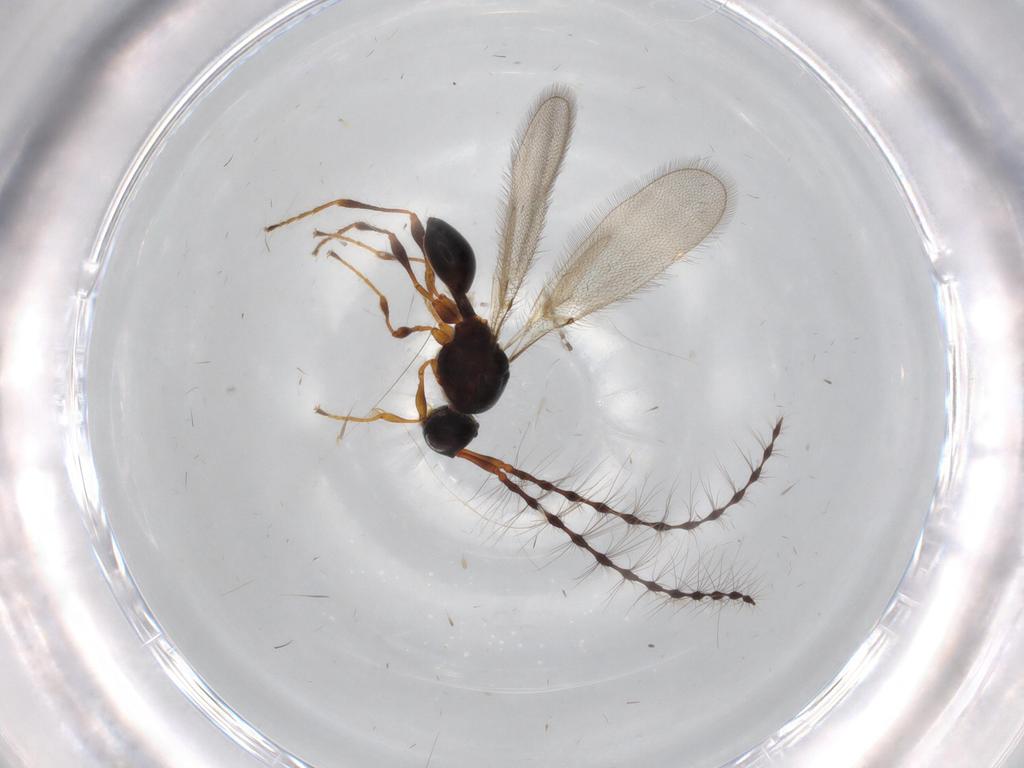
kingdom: Animalia
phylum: Arthropoda
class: Insecta
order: Hymenoptera
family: Diapriidae
